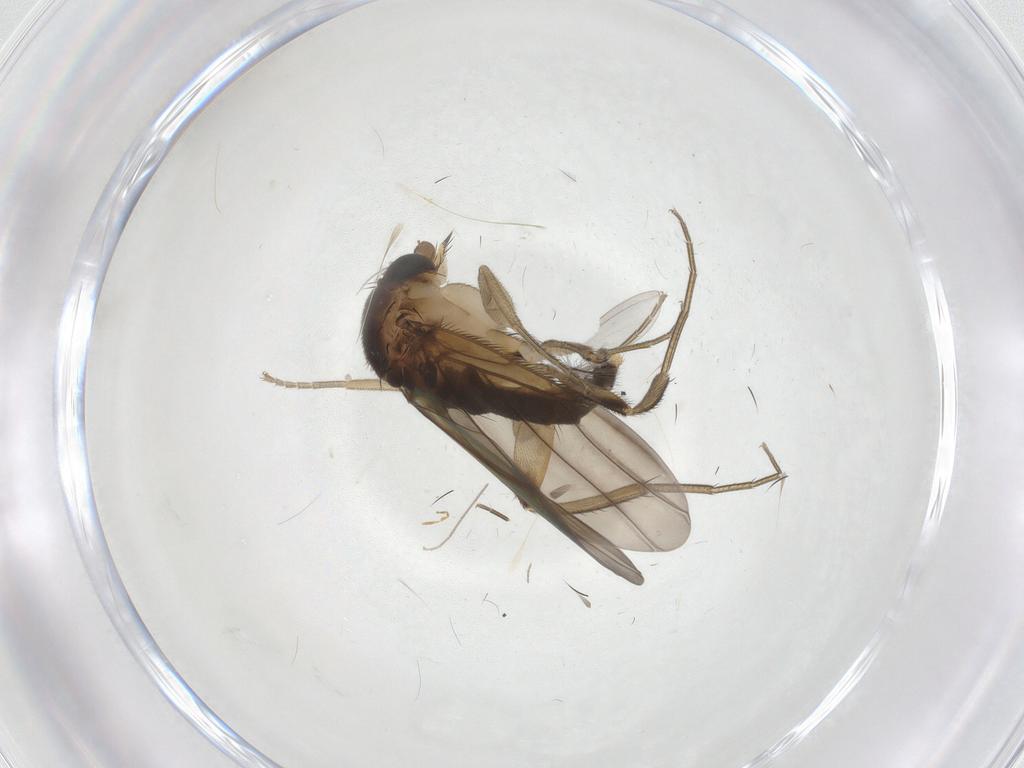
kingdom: Animalia
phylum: Arthropoda
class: Insecta
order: Diptera
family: Phoridae
